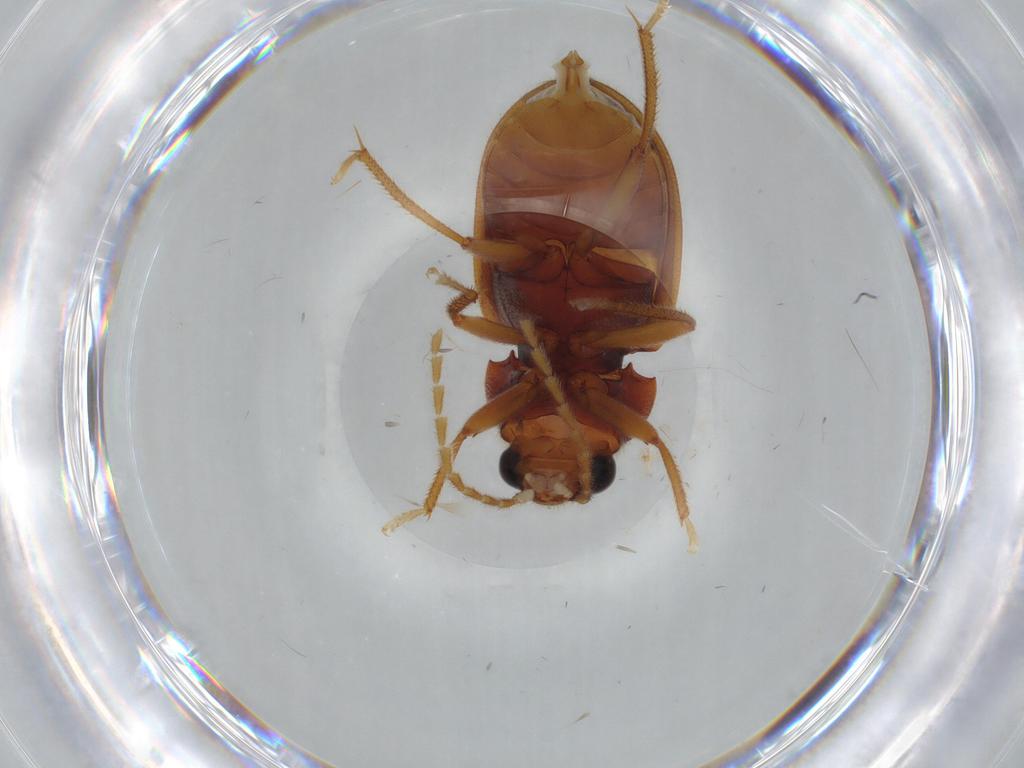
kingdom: Animalia
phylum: Arthropoda
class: Insecta
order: Coleoptera
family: Ptilodactylidae
